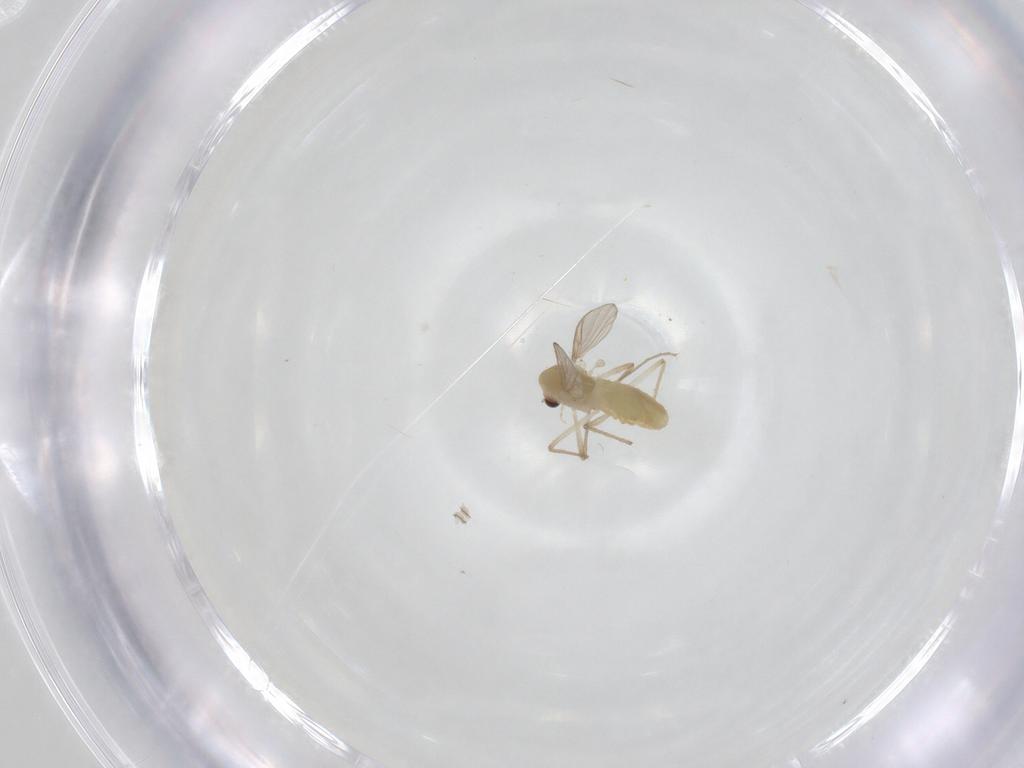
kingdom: Animalia
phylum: Arthropoda
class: Insecta
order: Diptera
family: Chironomidae
